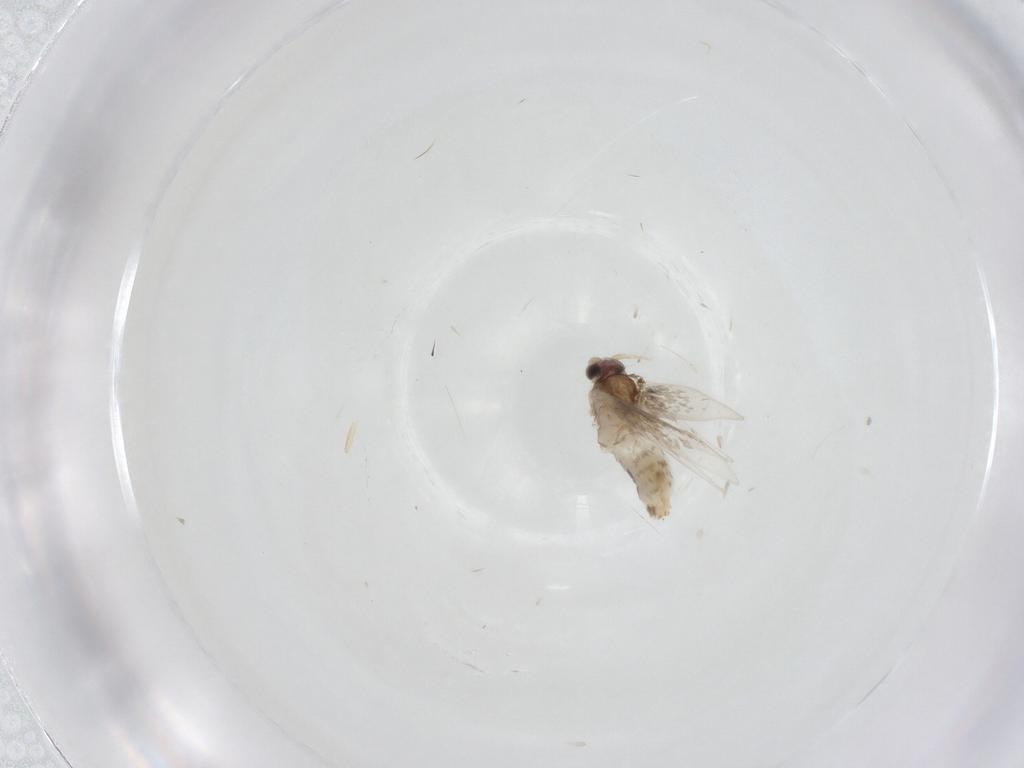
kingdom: Animalia
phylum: Arthropoda
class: Insecta
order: Lepidoptera
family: Nepticulidae
